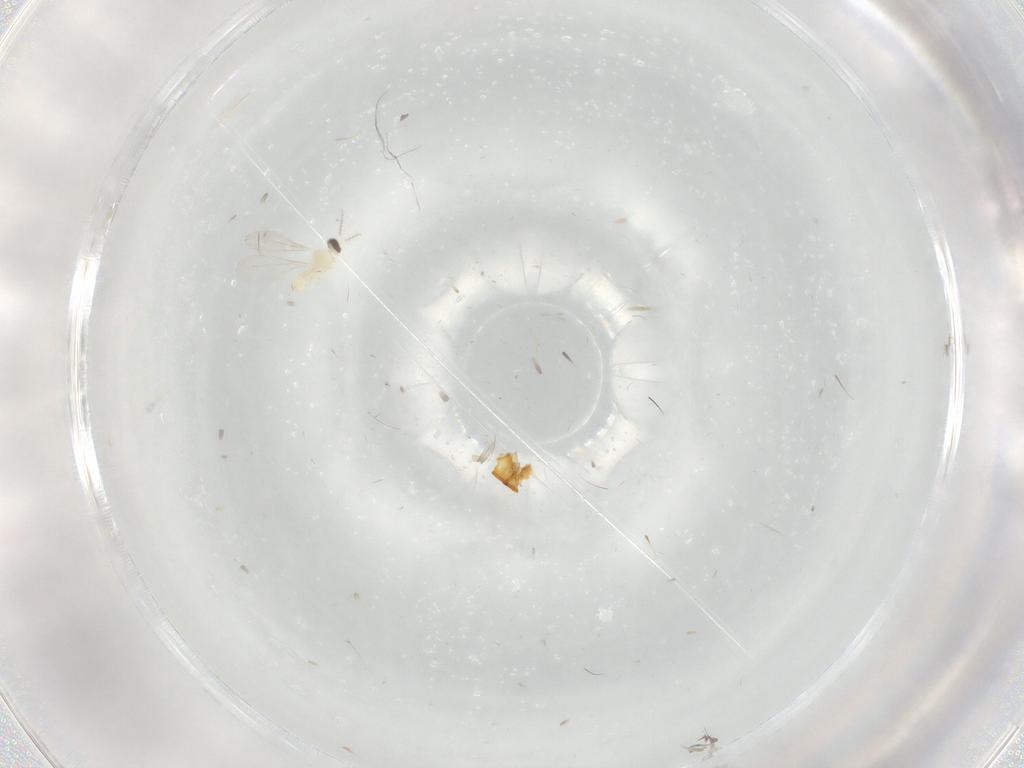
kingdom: Animalia
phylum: Arthropoda
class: Insecta
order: Diptera
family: Cecidomyiidae
